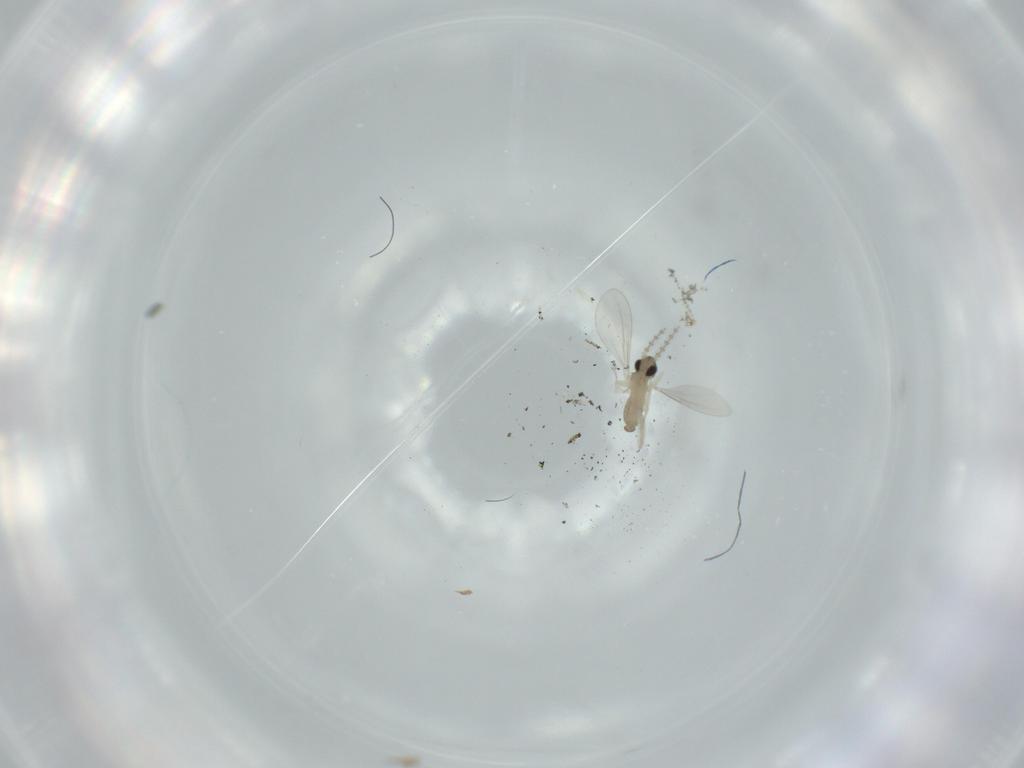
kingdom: Animalia
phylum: Arthropoda
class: Insecta
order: Diptera
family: Cecidomyiidae
